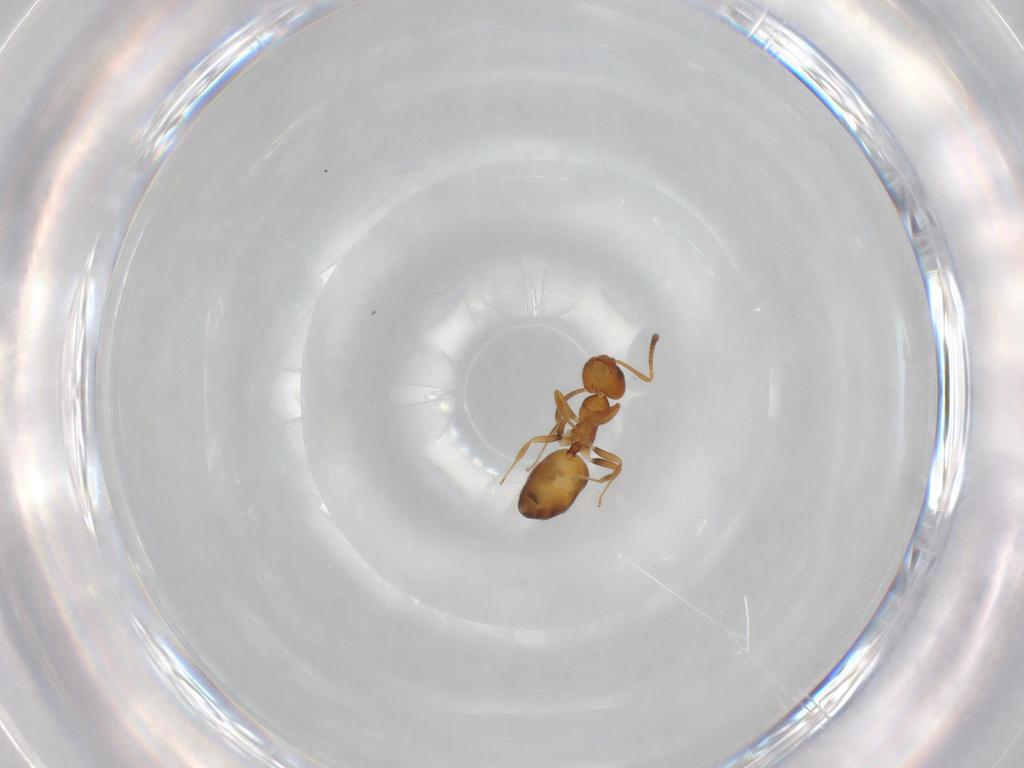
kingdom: Animalia
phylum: Arthropoda
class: Insecta
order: Hymenoptera
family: Formicidae
